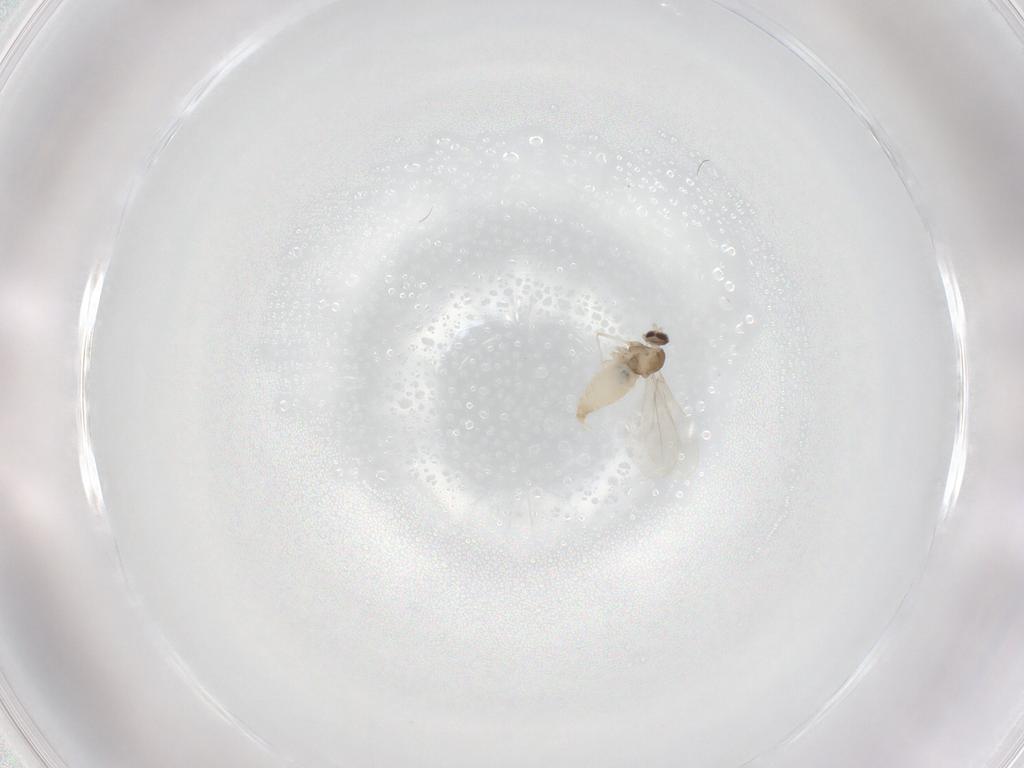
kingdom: Animalia
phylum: Arthropoda
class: Insecta
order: Diptera
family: Cecidomyiidae
